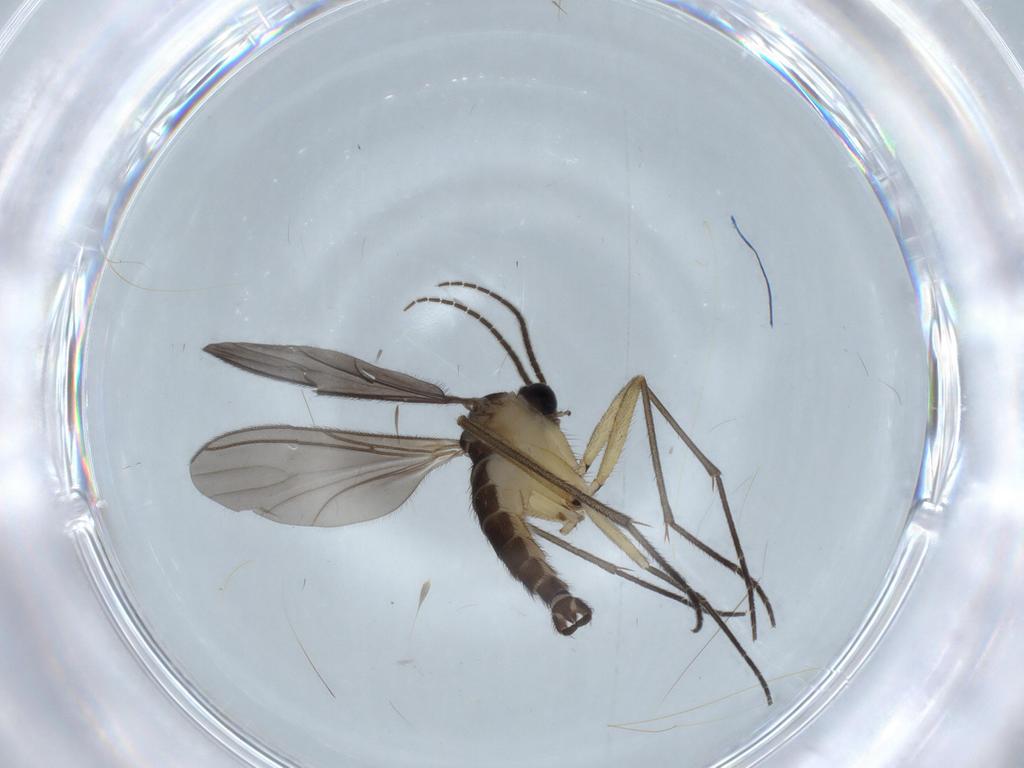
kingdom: Animalia
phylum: Arthropoda
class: Insecta
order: Diptera
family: Sciaridae
